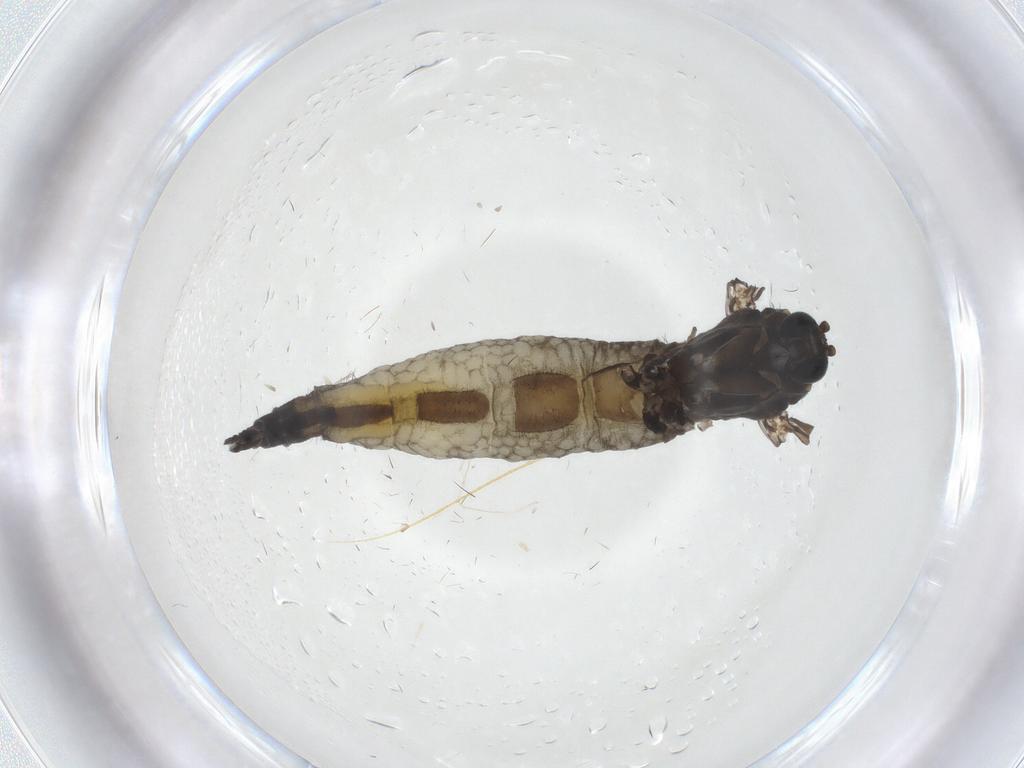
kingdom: Animalia
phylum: Arthropoda
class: Insecta
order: Diptera
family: Sciaridae
